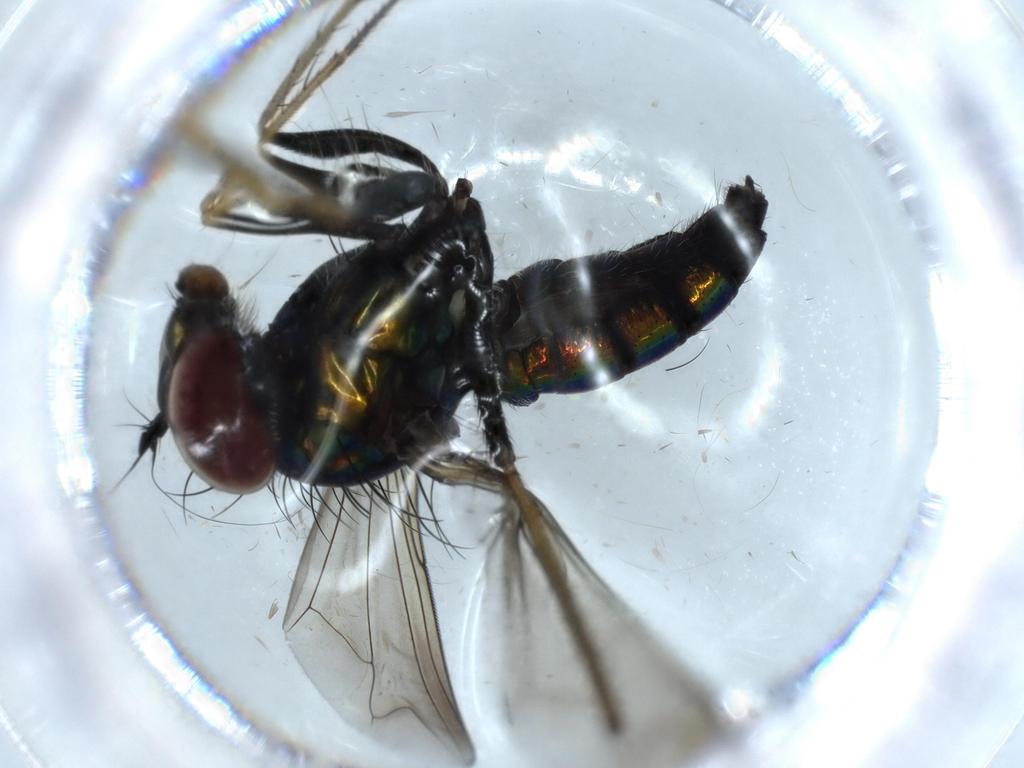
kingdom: Animalia
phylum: Arthropoda
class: Insecta
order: Diptera
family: Dolichopodidae
